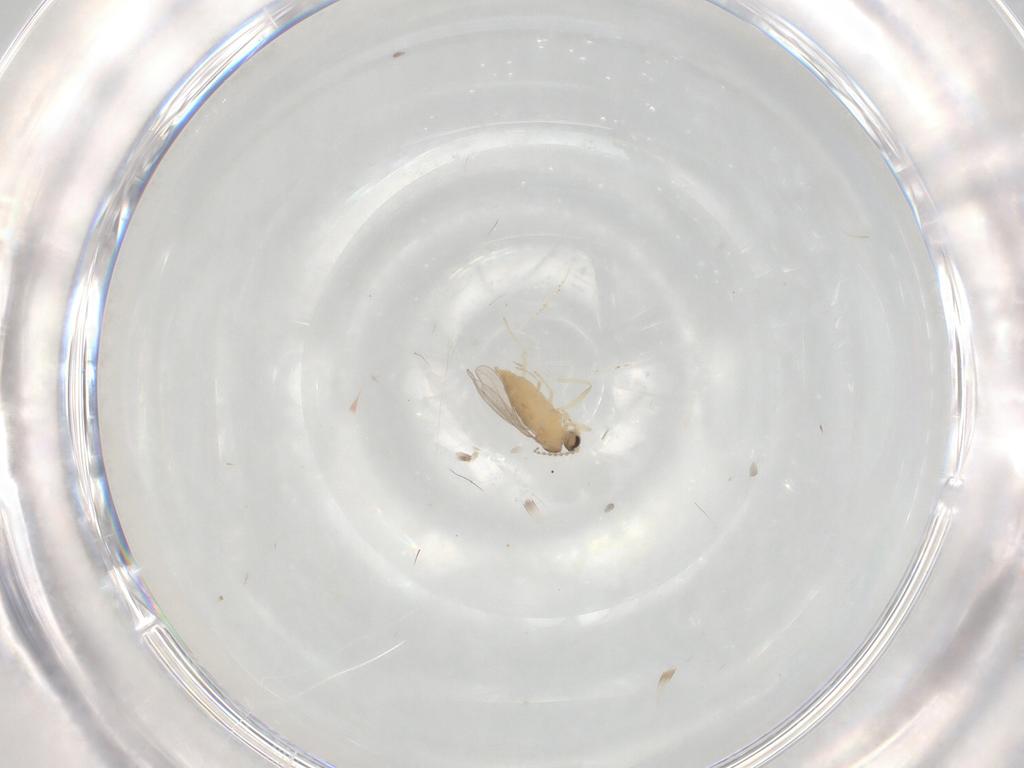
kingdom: Animalia
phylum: Arthropoda
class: Insecta
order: Diptera
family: Cecidomyiidae
